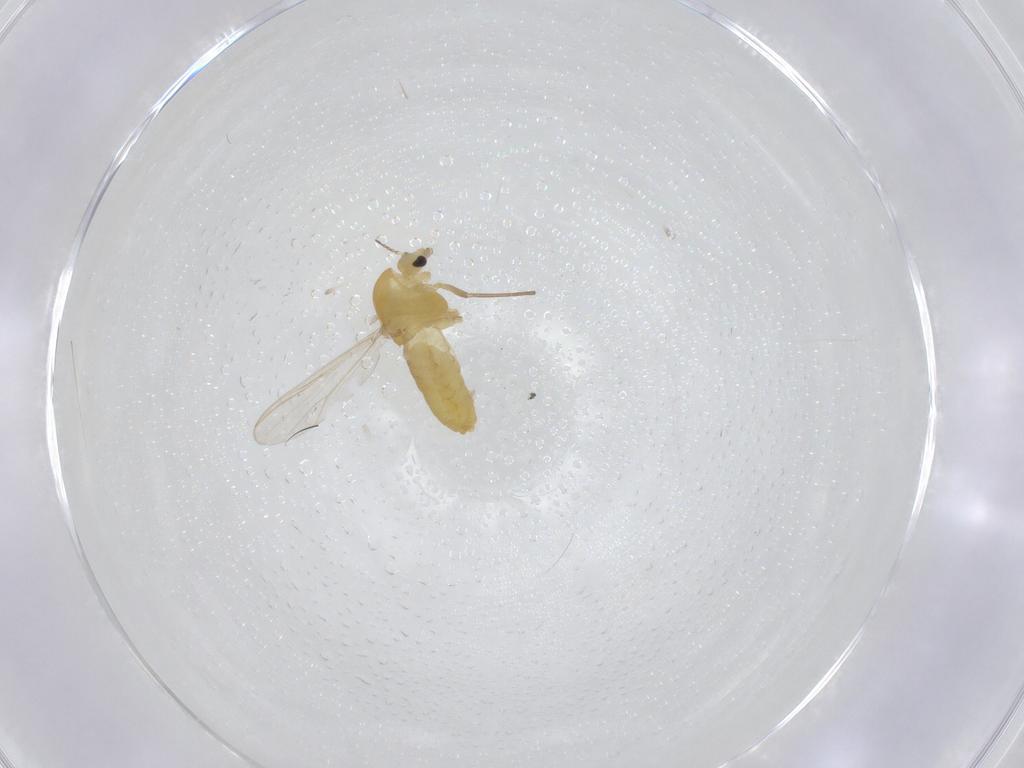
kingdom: Animalia
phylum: Arthropoda
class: Insecta
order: Diptera
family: Chironomidae
